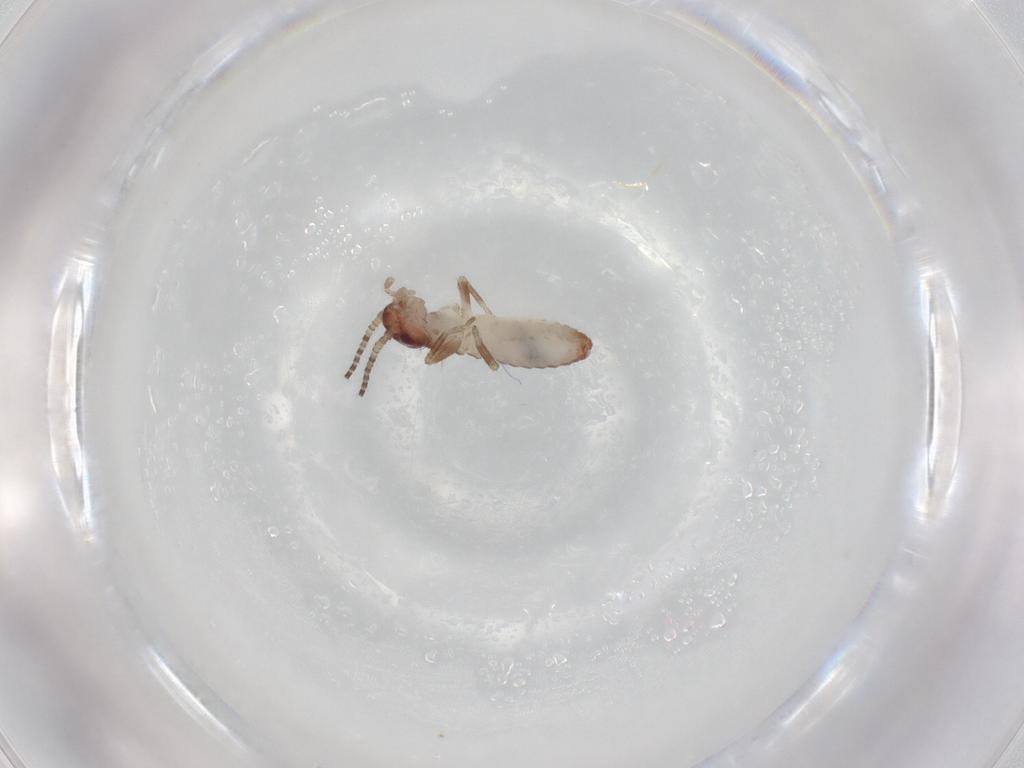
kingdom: Animalia
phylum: Arthropoda
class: Insecta
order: Orthoptera
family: Mogoplistidae
